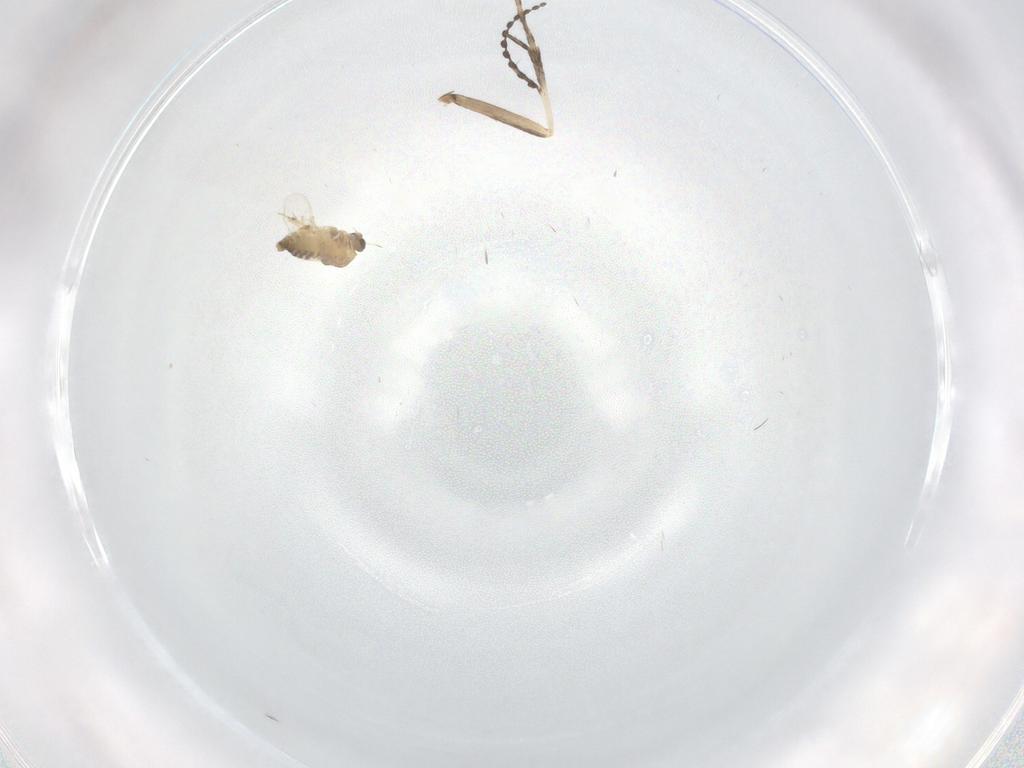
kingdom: Animalia
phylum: Arthropoda
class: Insecta
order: Diptera
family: Cecidomyiidae
